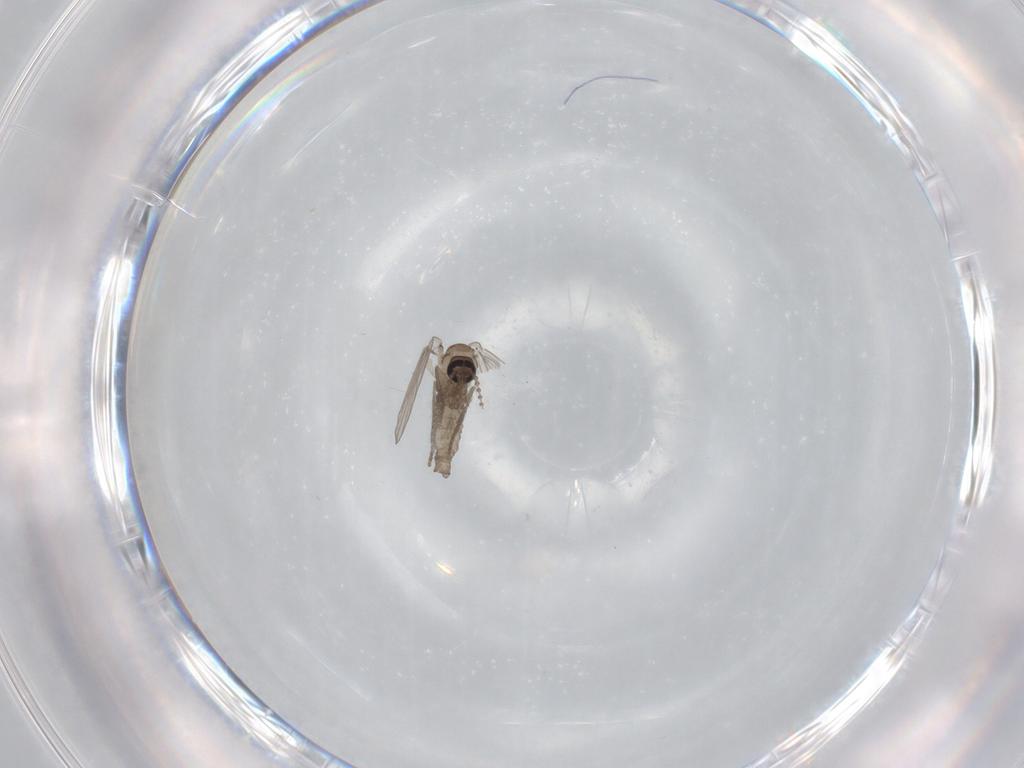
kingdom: Animalia
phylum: Arthropoda
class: Insecta
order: Diptera
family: Psychodidae
